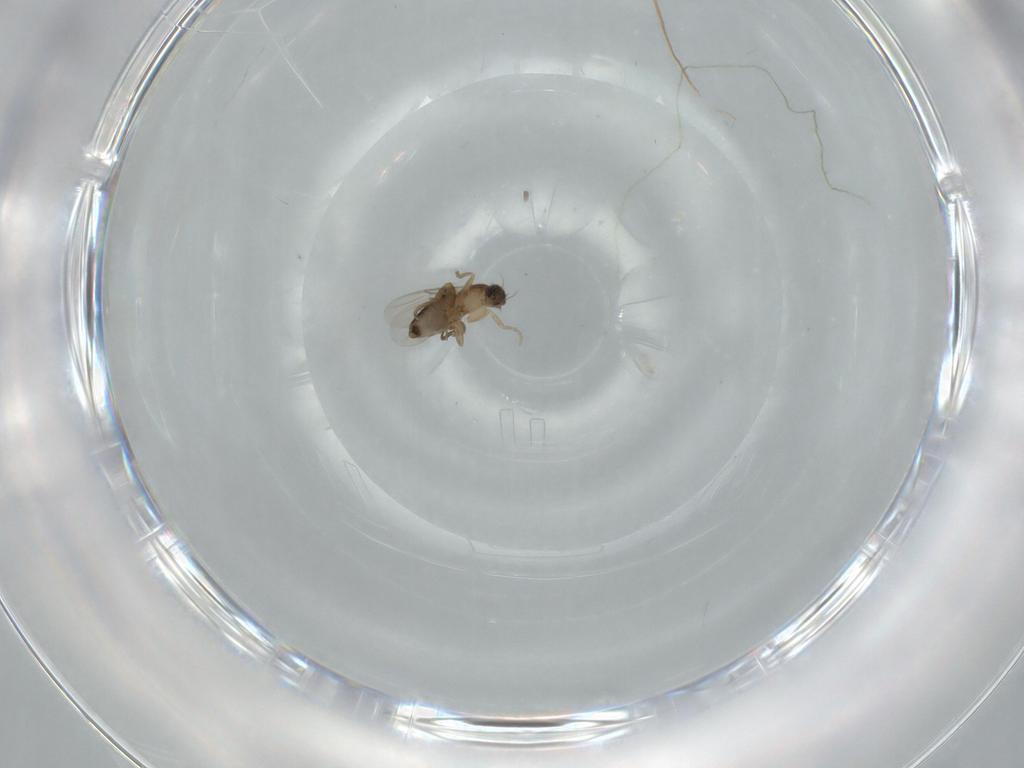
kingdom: Animalia
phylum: Arthropoda
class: Insecta
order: Diptera
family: Phoridae
